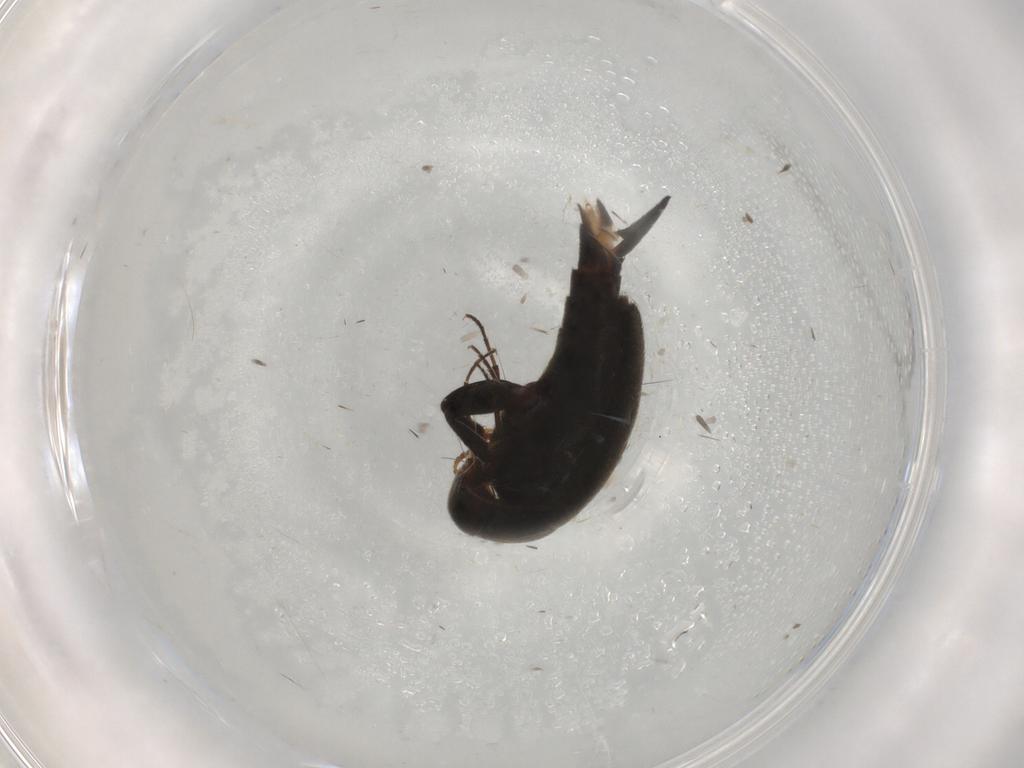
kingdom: Animalia
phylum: Arthropoda
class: Insecta
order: Coleoptera
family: Mordellidae
